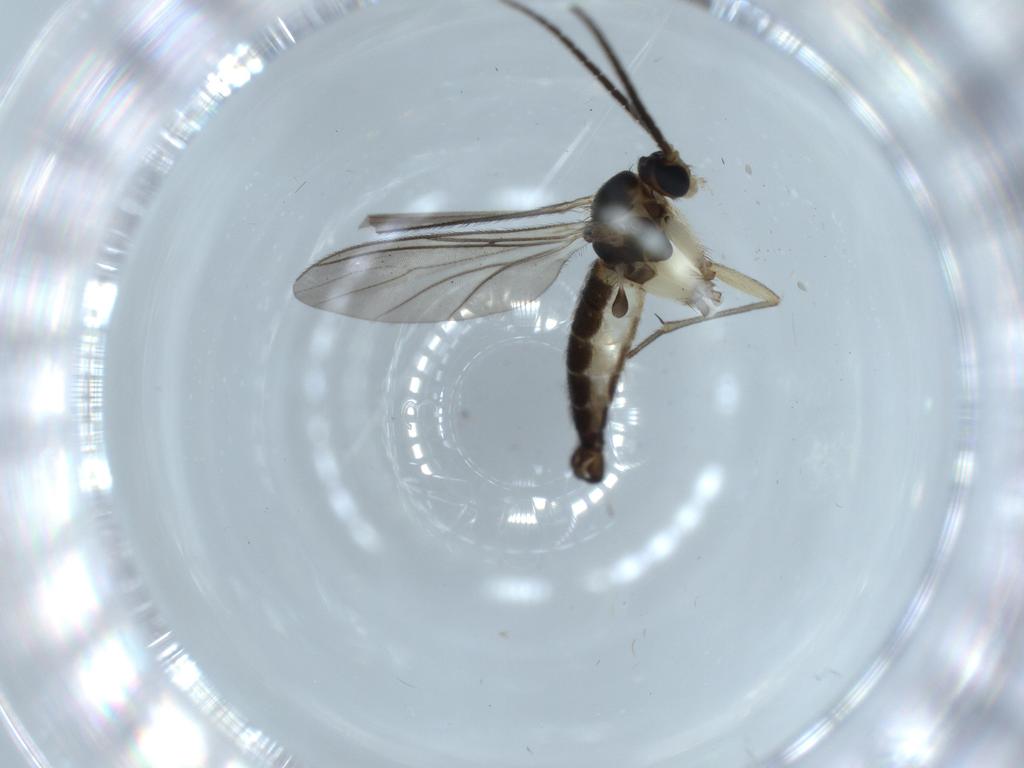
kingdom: Animalia
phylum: Arthropoda
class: Insecta
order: Diptera
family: Sciaridae
